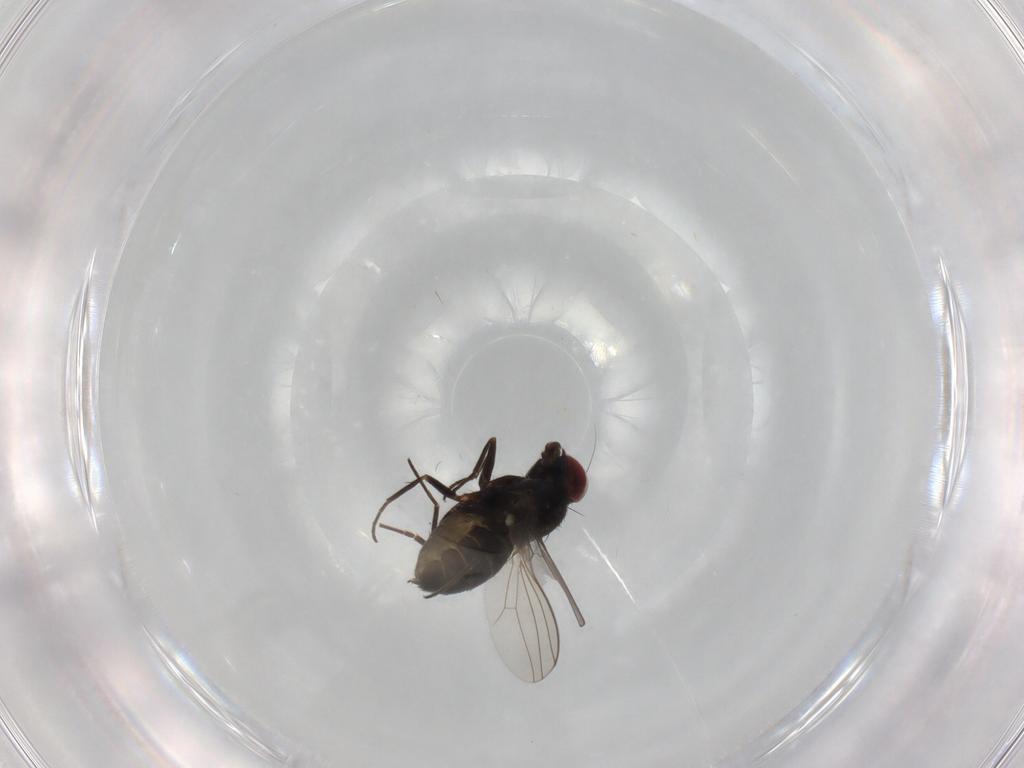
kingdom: Animalia
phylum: Arthropoda
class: Insecta
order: Diptera
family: Dolichopodidae
